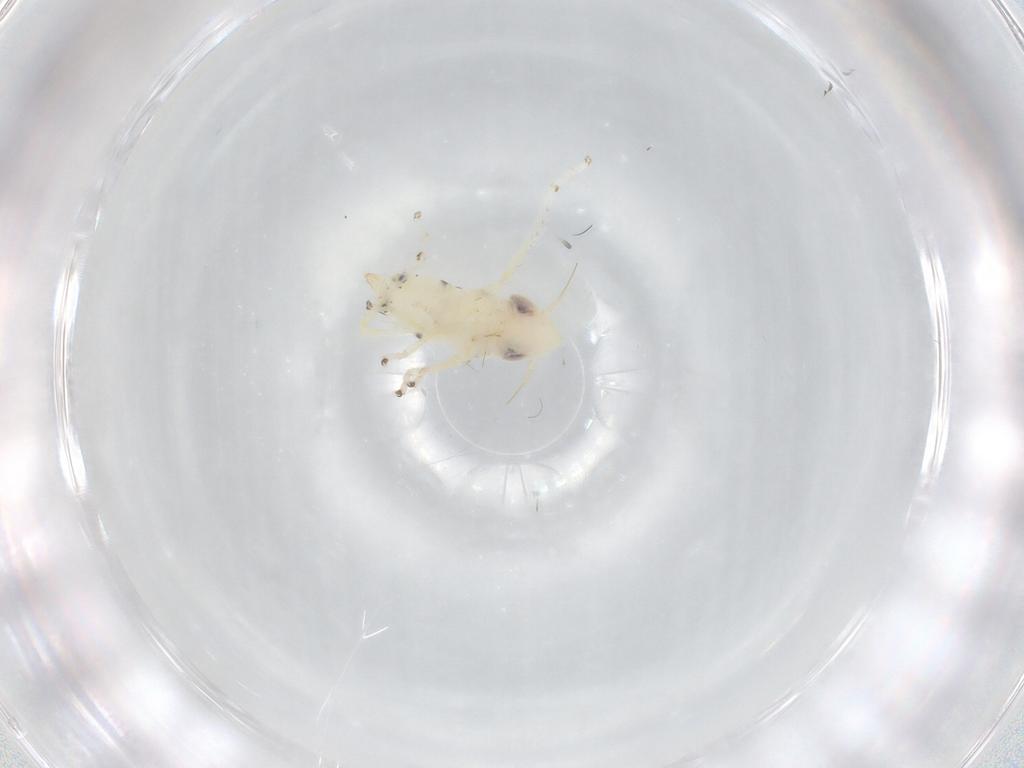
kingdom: Animalia
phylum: Arthropoda
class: Insecta
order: Hemiptera
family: Cicadellidae
